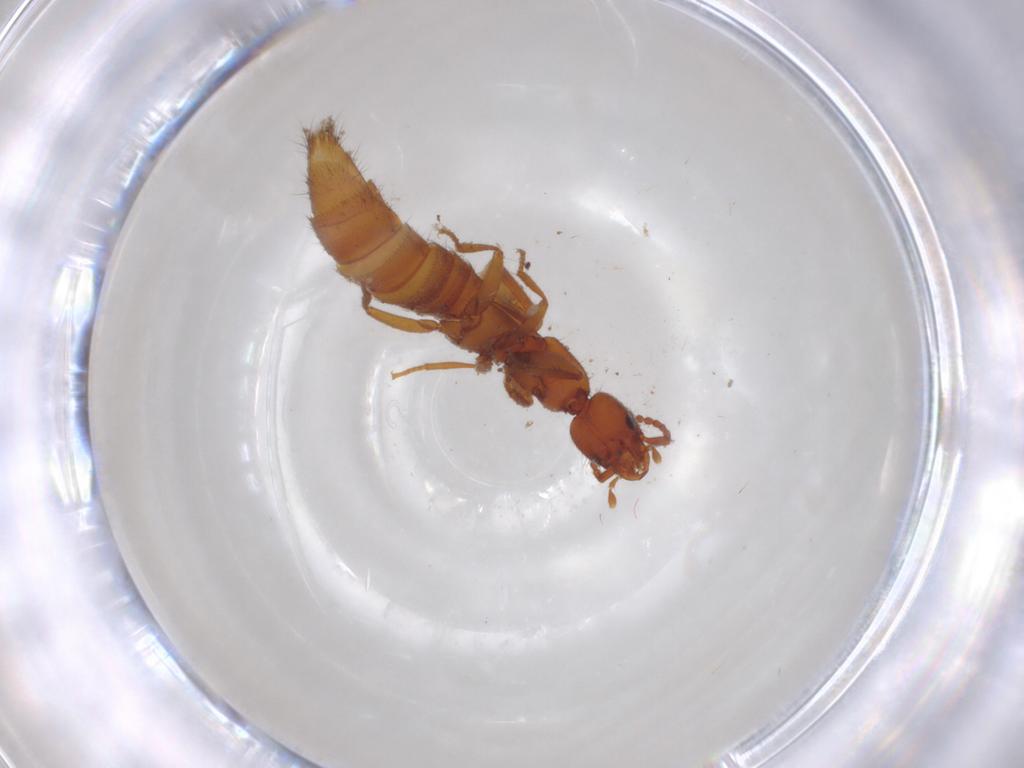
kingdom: Animalia
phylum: Arthropoda
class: Insecta
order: Coleoptera
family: Staphylinidae
